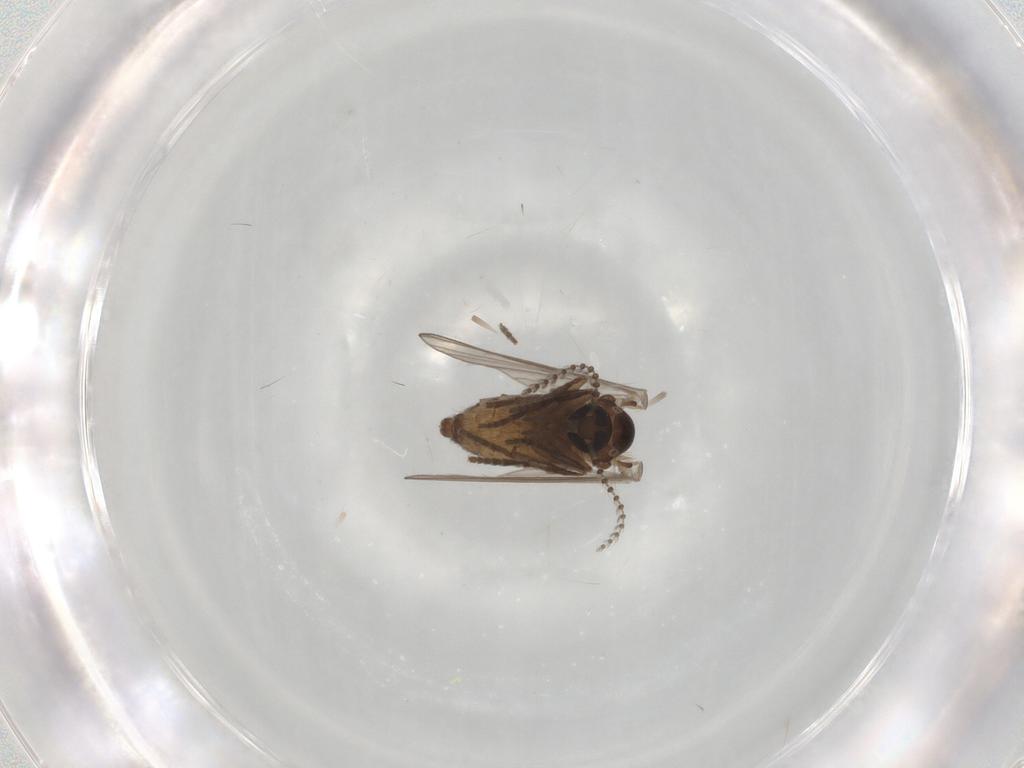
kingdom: Animalia
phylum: Arthropoda
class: Insecta
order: Diptera
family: Psychodidae
